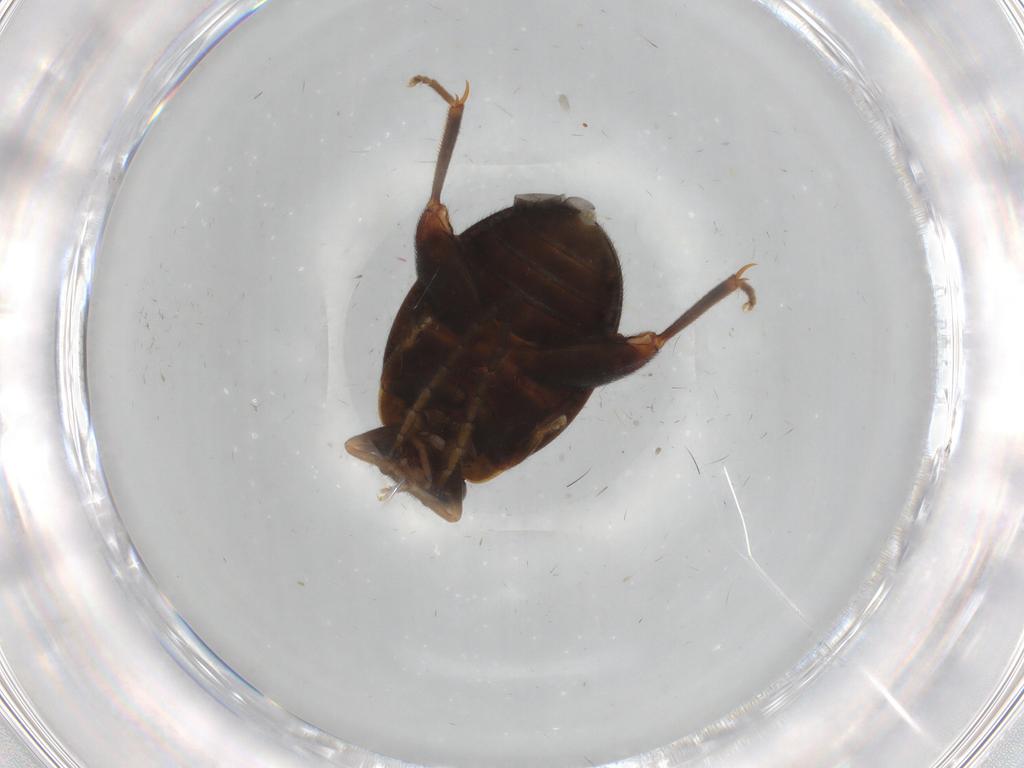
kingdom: Animalia
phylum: Arthropoda
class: Insecta
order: Coleoptera
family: Scirtidae
